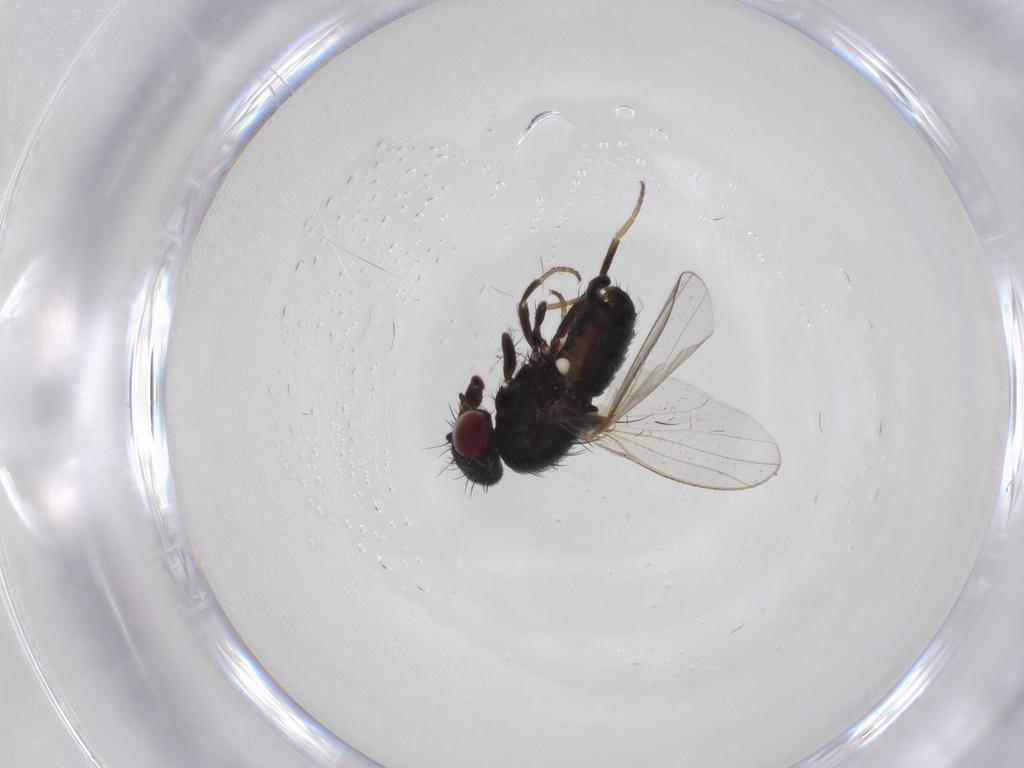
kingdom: Animalia
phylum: Arthropoda
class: Insecta
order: Diptera
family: Carnidae
